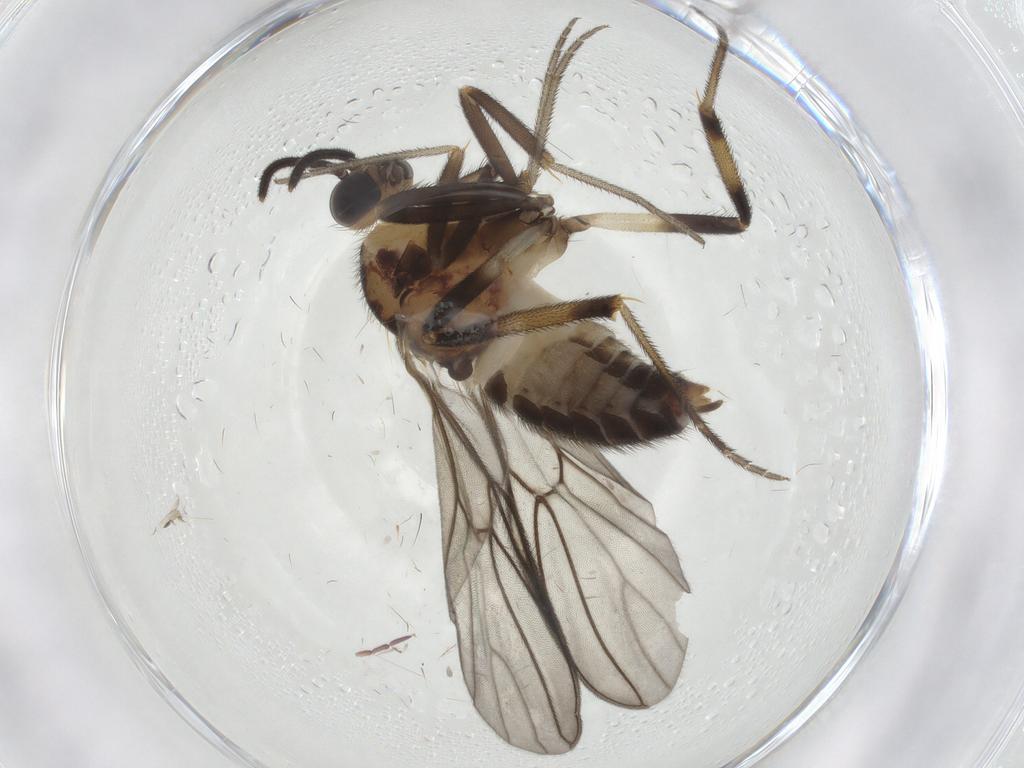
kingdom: Animalia
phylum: Arthropoda
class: Insecta
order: Diptera
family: Anisopodidae
